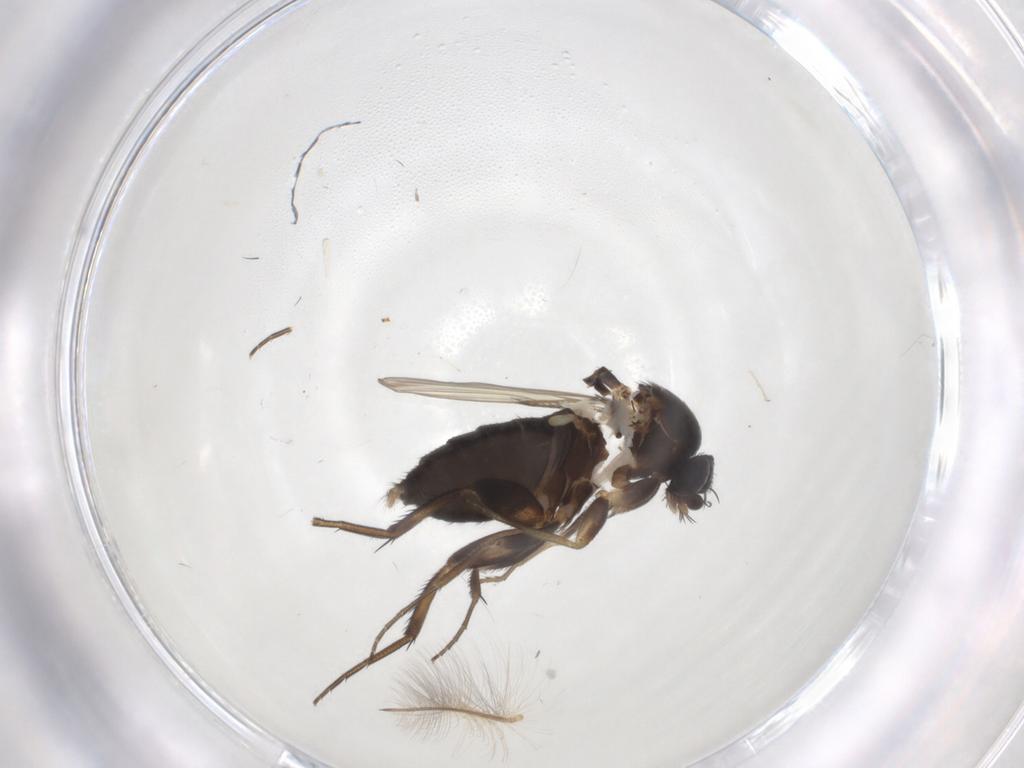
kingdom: Animalia
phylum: Arthropoda
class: Insecta
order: Diptera
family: Phoridae
